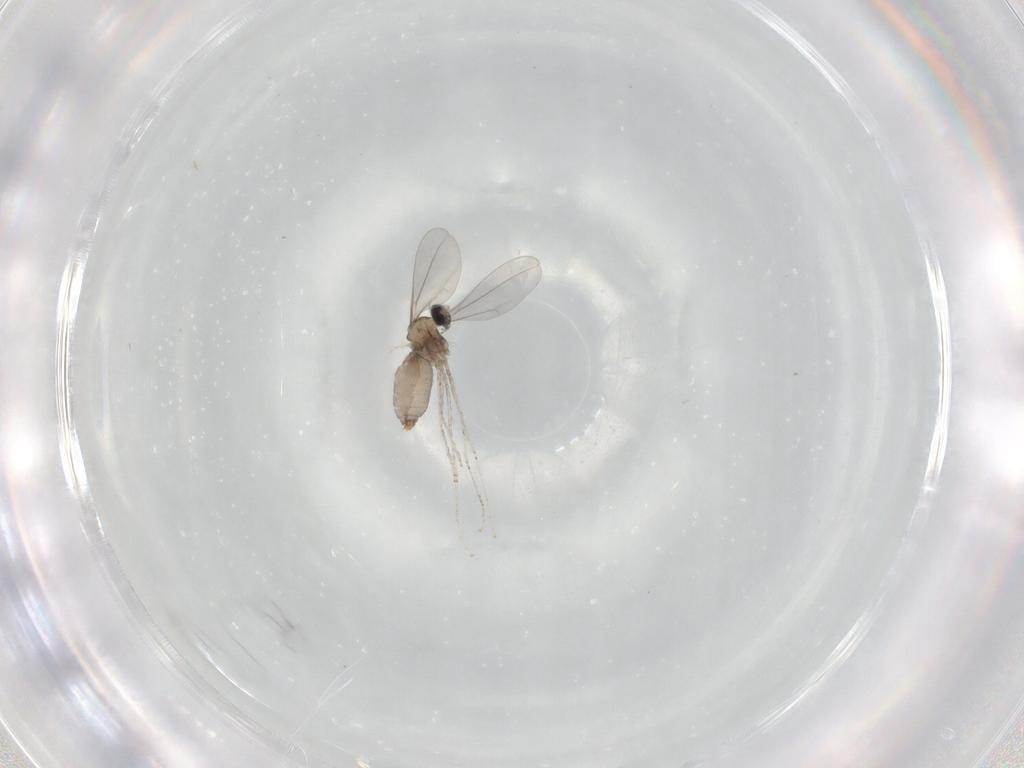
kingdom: Animalia
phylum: Arthropoda
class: Insecta
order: Diptera
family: Cecidomyiidae
